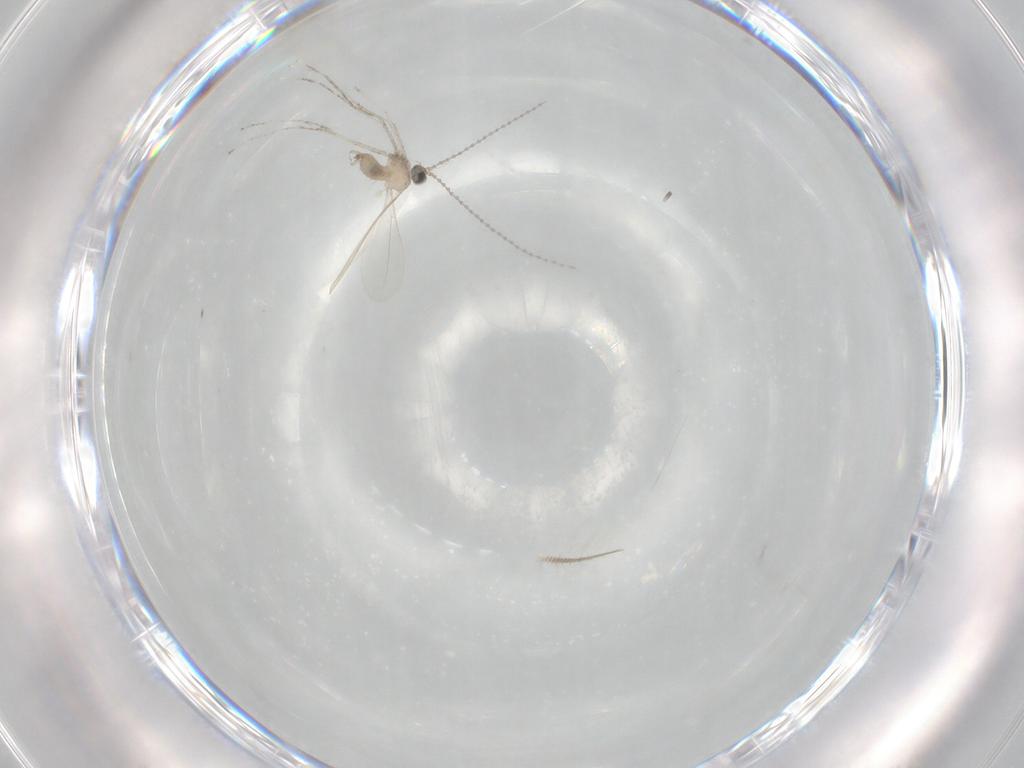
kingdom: Animalia
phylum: Arthropoda
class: Insecta
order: Diptera
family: Cecidomyiidae
